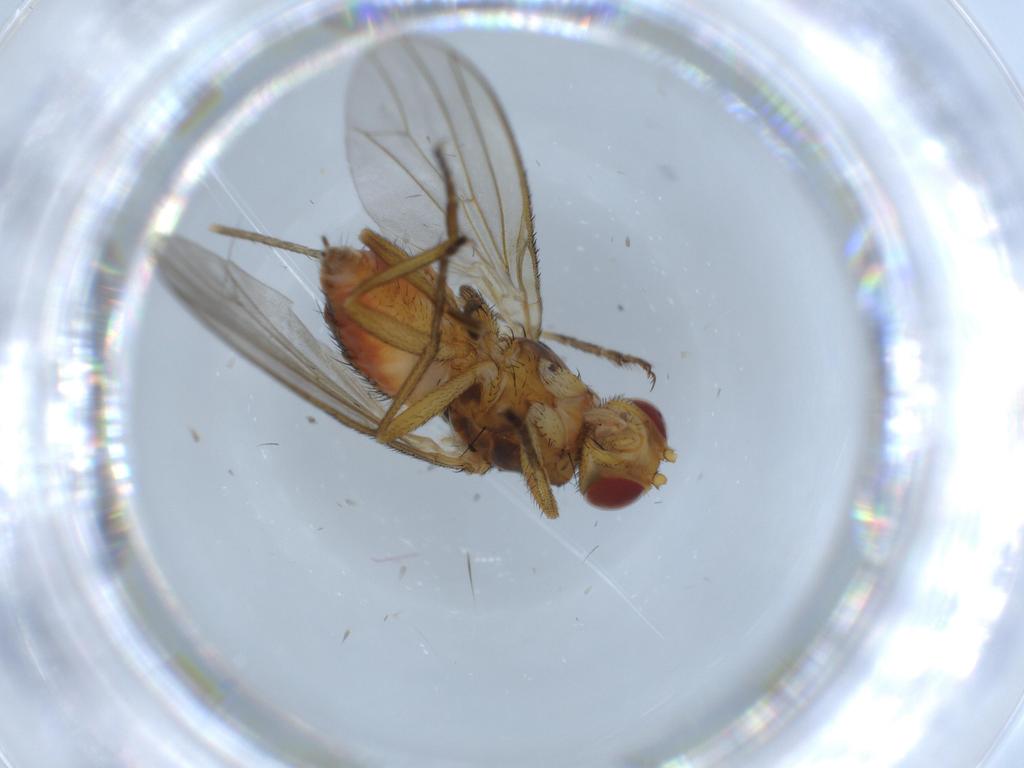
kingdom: Animalia
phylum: Arthropoda
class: Insecta
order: Diptera
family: Heleomyzidae
